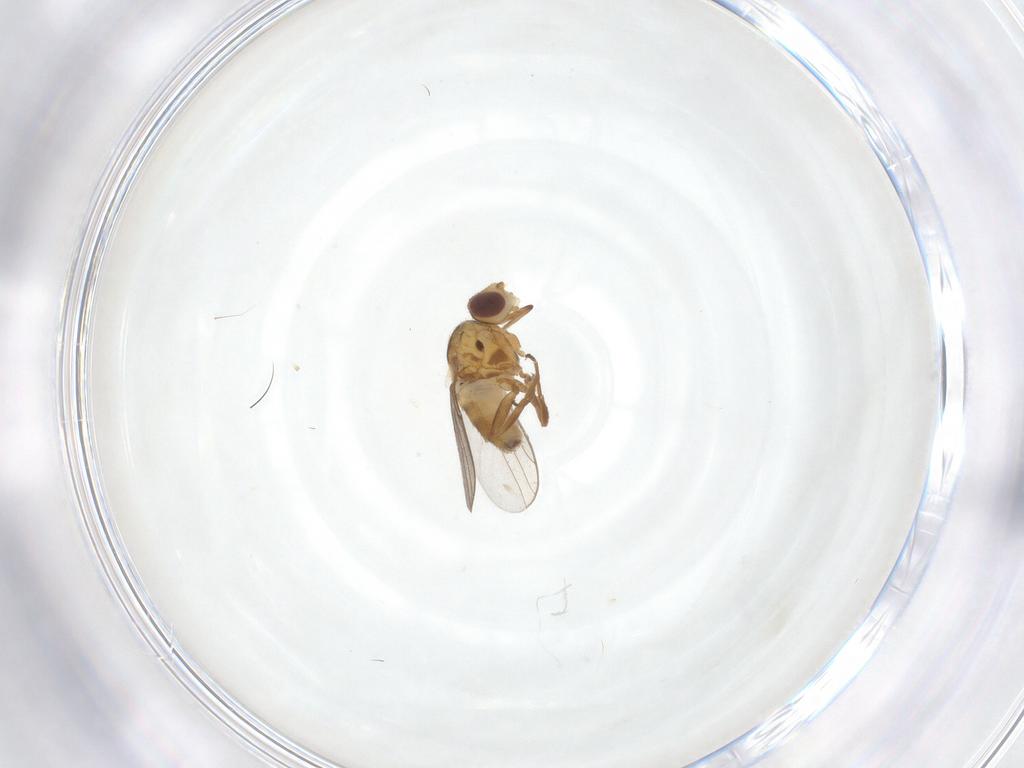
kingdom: Animalia
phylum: Arthropoda
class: Insecta
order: Diptera
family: Chloropidae
